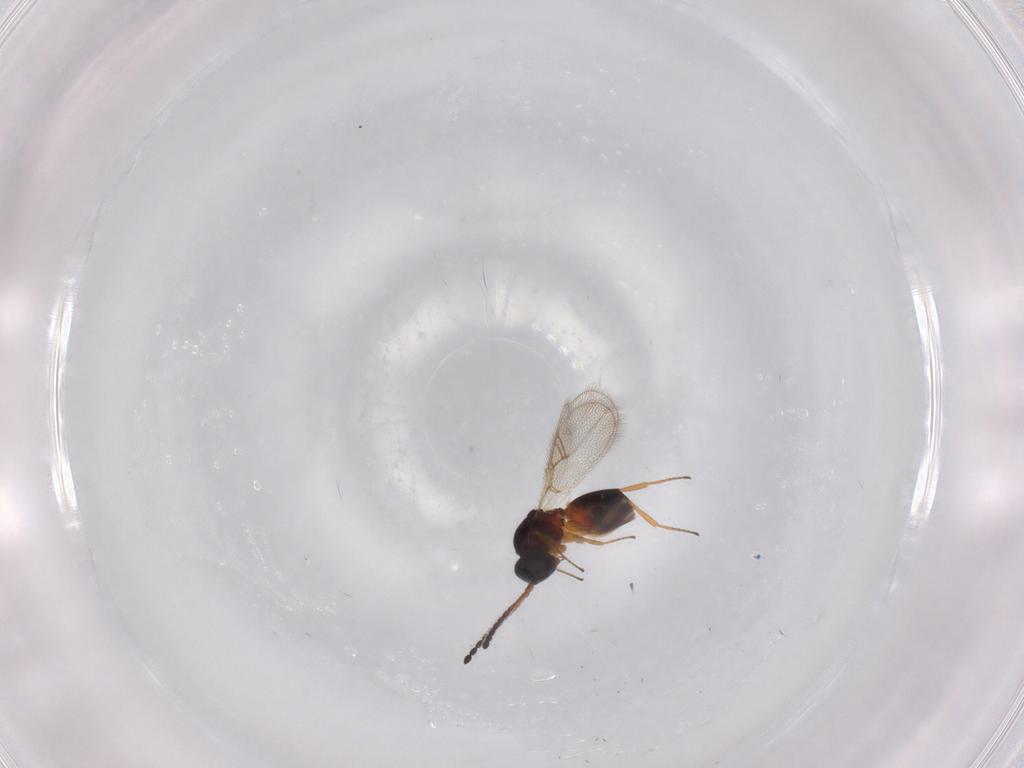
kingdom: Animalia
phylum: Arthropoda
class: Insecta
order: Hymenoptera
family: Figitidae
